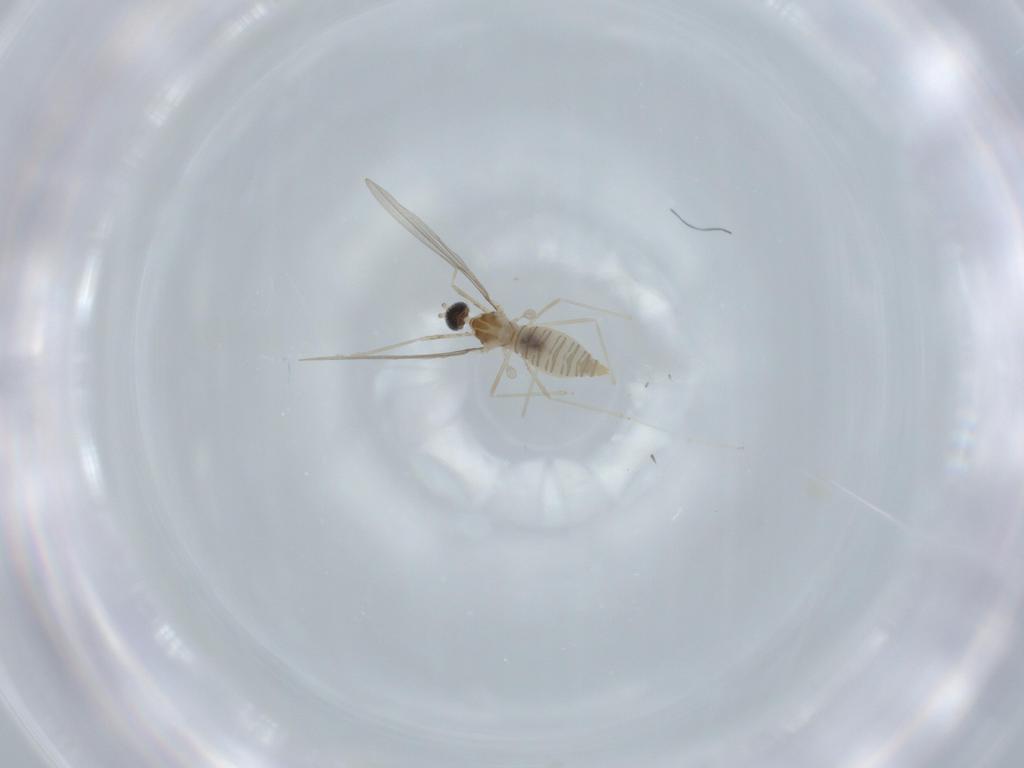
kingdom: Animalia
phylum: Arthropoda
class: Insecta
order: Diptera
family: Cecidomyiidae
